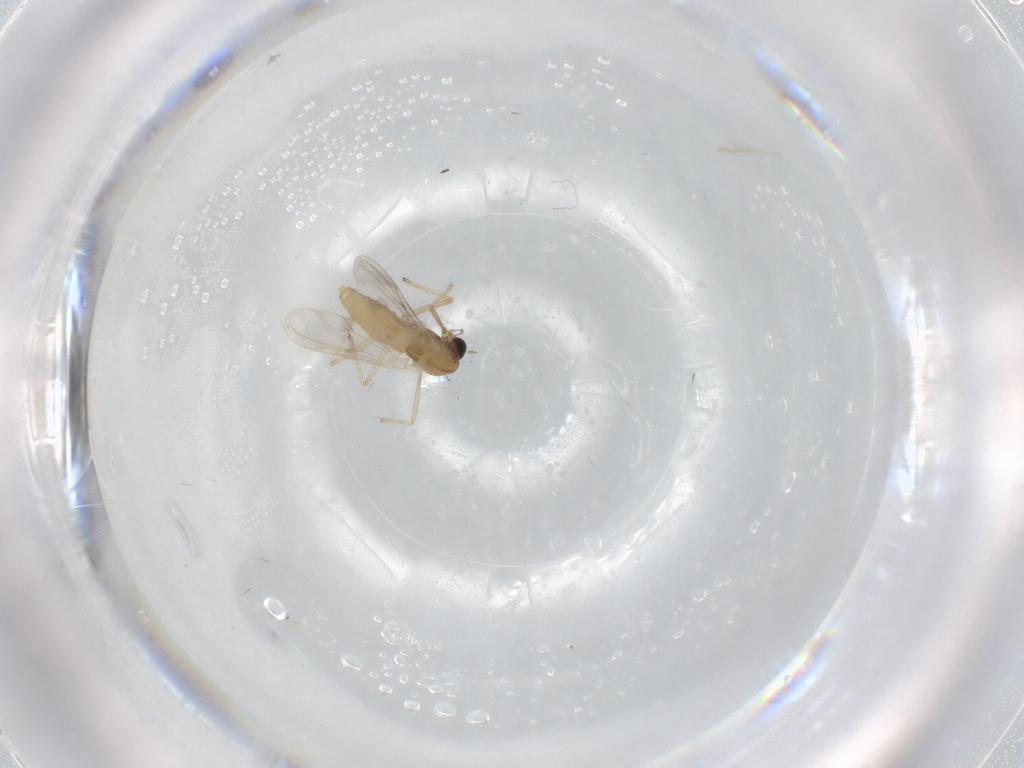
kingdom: Animalia
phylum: Arthropoda
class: Insecta
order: Diptera
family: Chironomidae
